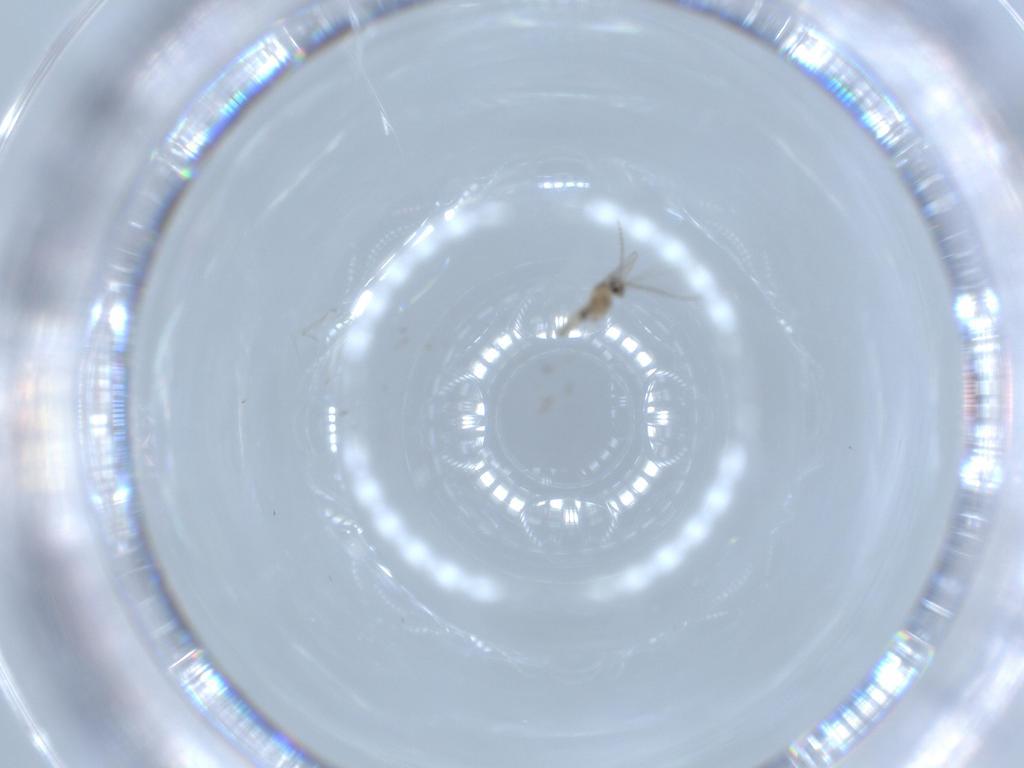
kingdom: Animalia
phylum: Arthropoda
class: Insecta
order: Diptera
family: Cecidomyiidae
